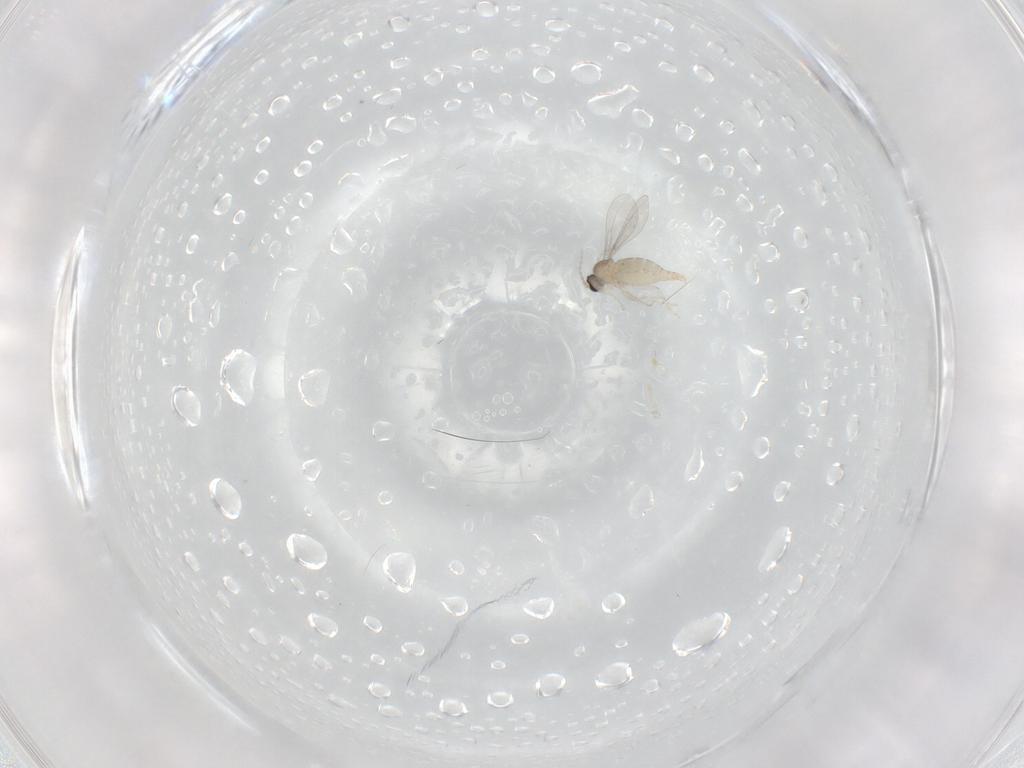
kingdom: Animalia
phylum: Arthropoda
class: Insecta
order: Diptera
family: Cecidomyiidae
